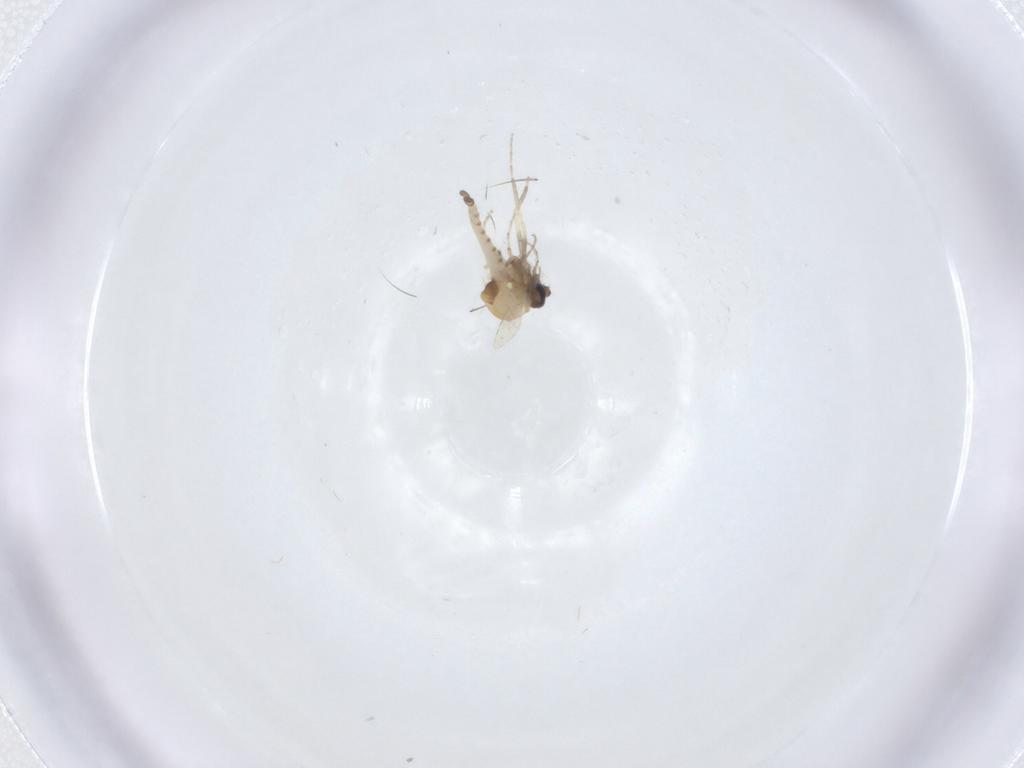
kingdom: Animalia
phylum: Arthropoda
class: Insecta
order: Diptera
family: Ceratopogonidae
